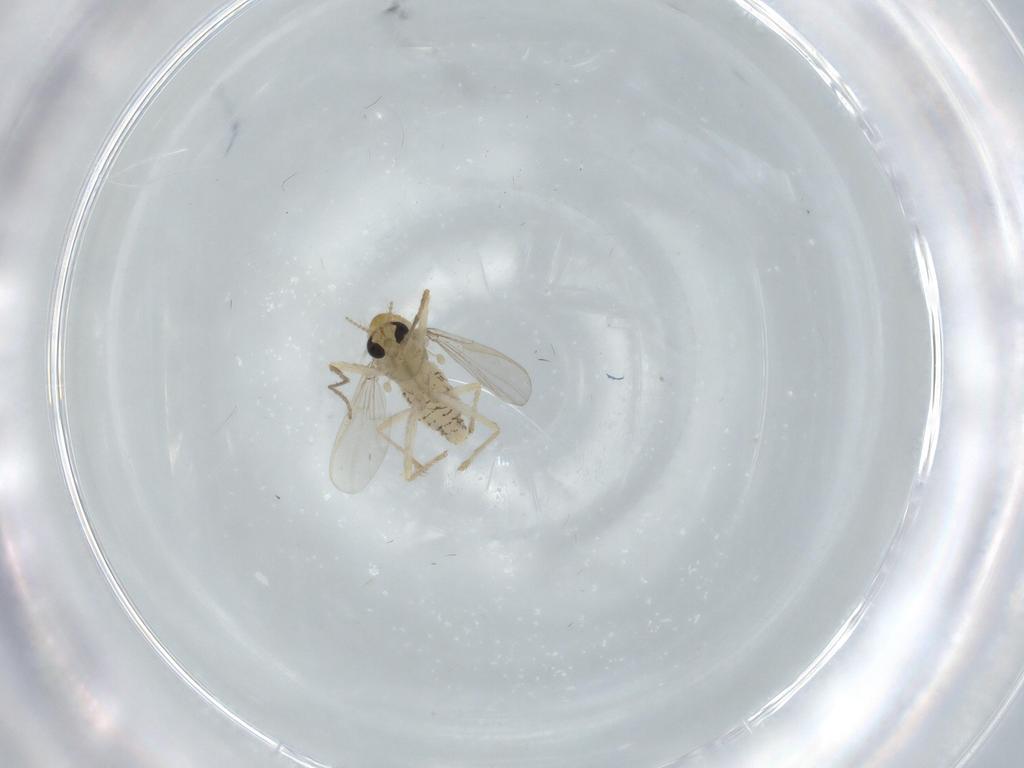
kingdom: Animalia
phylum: Arthropoda
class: Insecta
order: Diptera
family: Chironomidae
